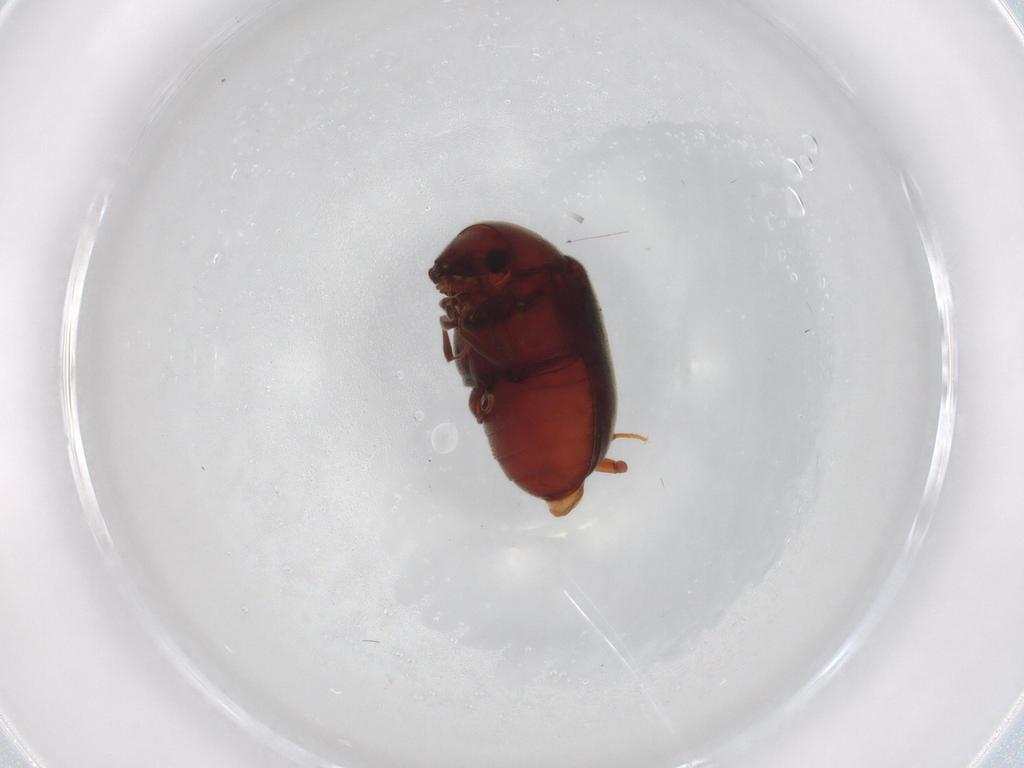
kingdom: Animalia
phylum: Arthropoda
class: Insecta
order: Coleoptera
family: Ptinidae
